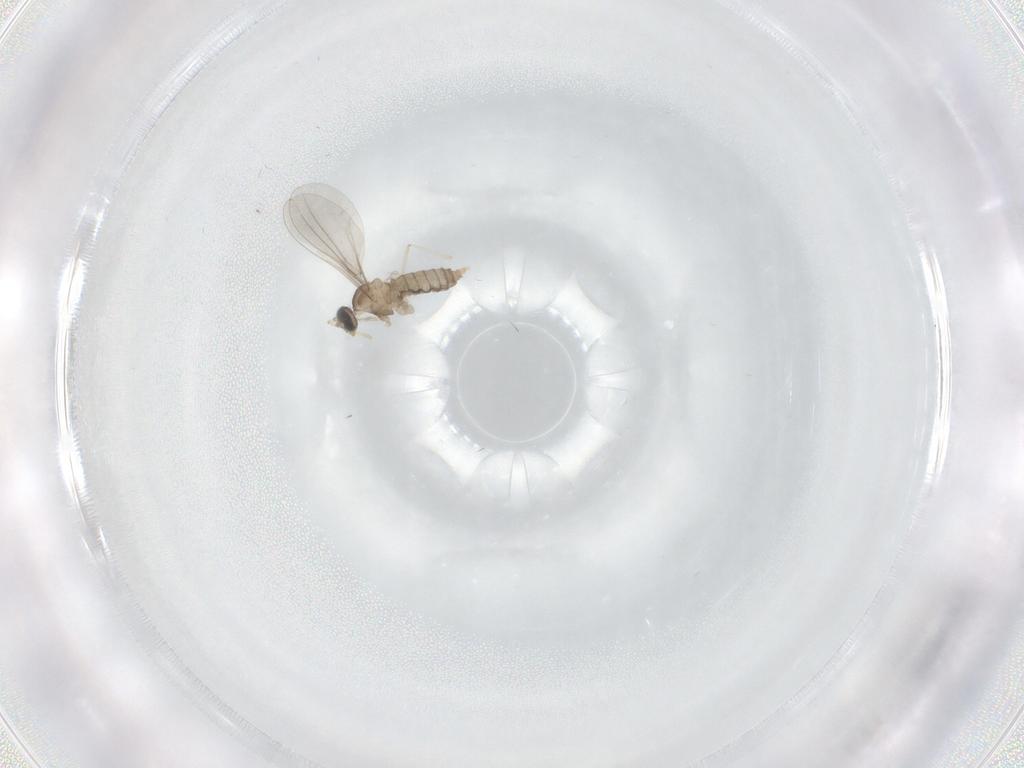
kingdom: Animalia
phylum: Arthropoda
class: Insecta
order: Diptera
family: Cecidomyiidae
